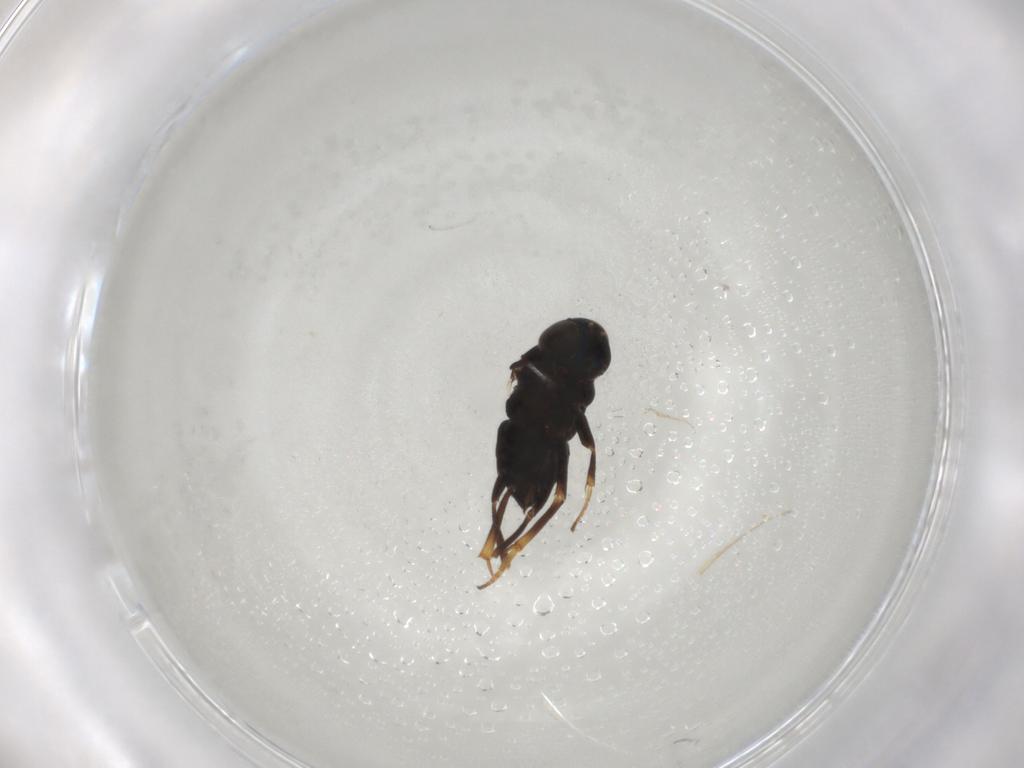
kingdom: Animalia
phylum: Arthropoda
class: Insecta
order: Hymenoptera
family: Encyrtidae
